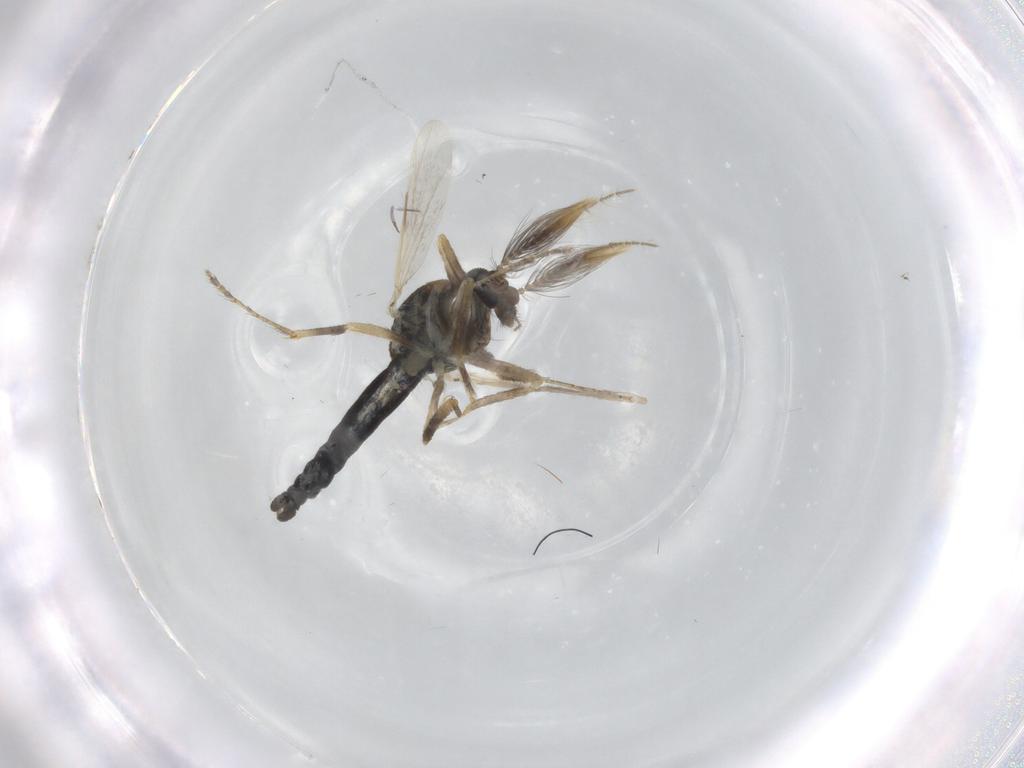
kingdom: Animalia
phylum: Arthropoda
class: Insecta
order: Diptera
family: Ceratopogonidae
